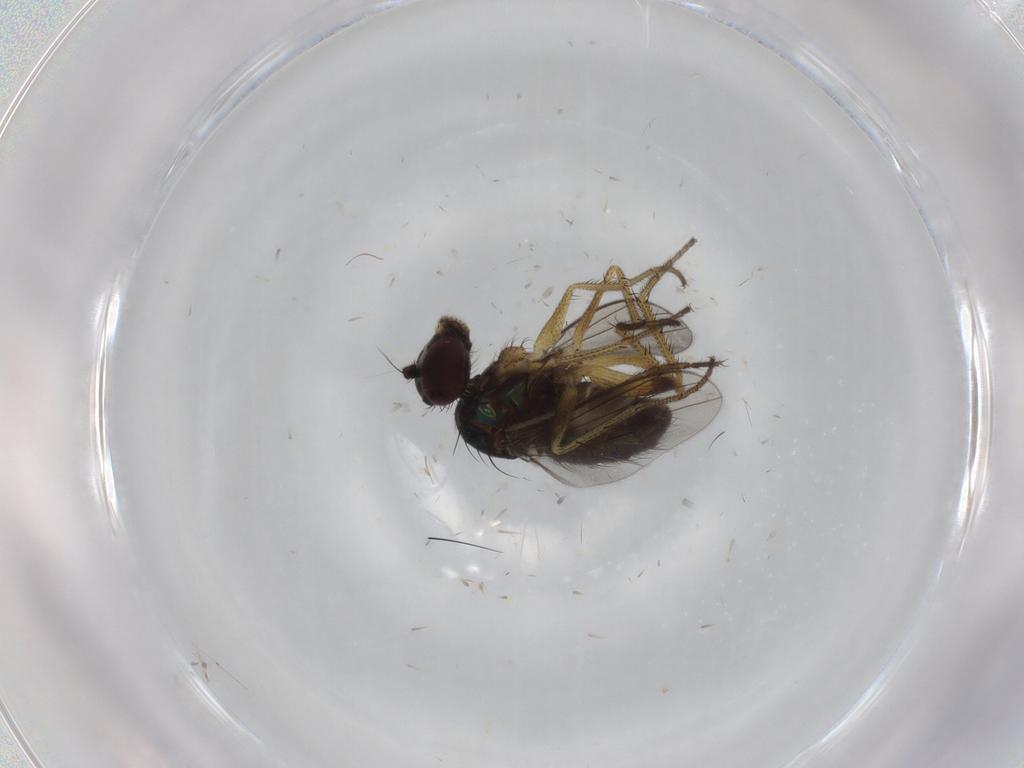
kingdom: Animalia
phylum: Arthropoda
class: Insecta
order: Diptera
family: Dolichopodidae
